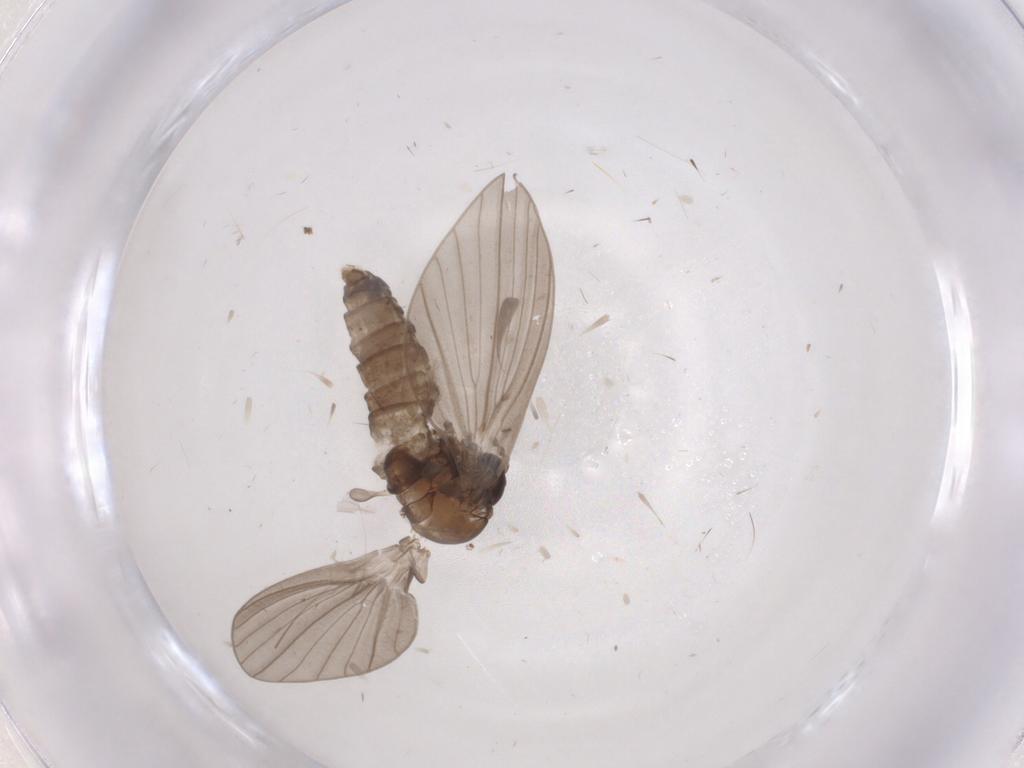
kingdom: Animalia
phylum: Arthropoda
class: Insecta
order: Diptera
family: Psychodidae
